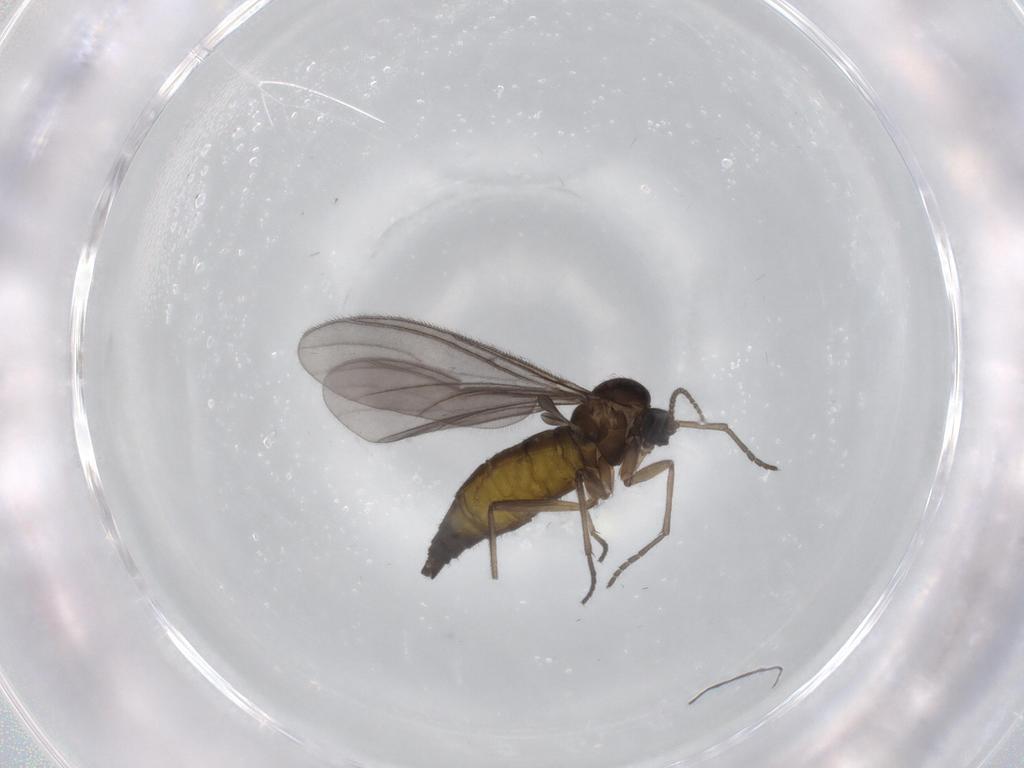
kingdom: Animalia
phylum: Arthropoda
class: Insecta
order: Diptera
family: Sciaridae
